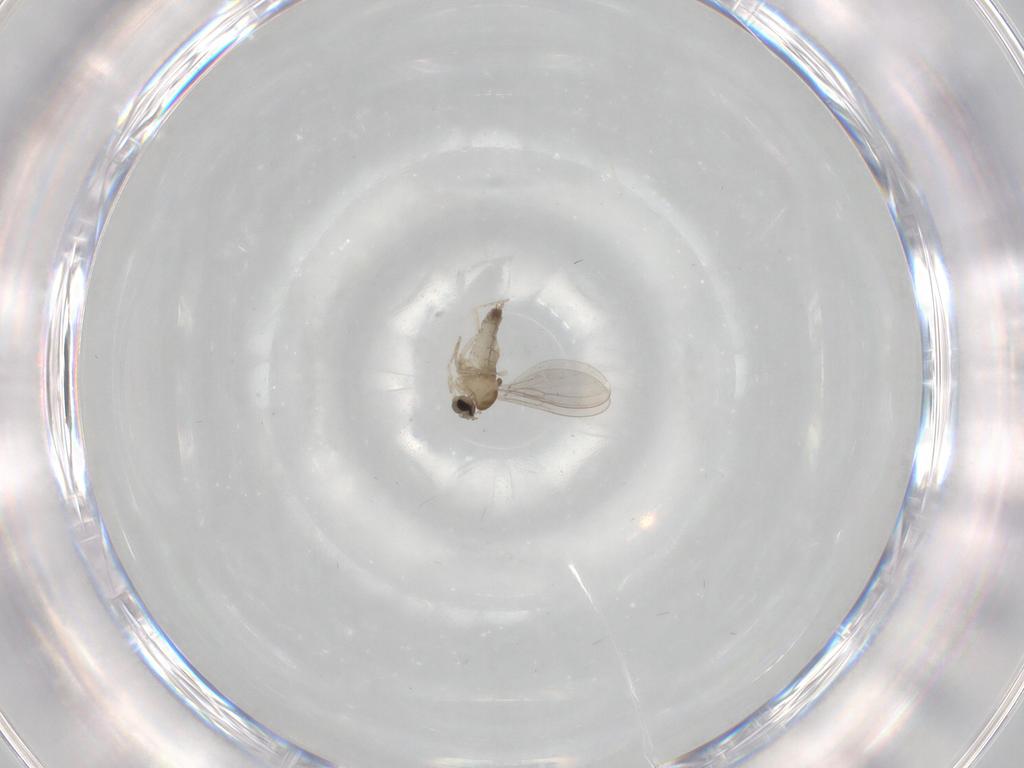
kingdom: Animalia
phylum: Arthropoda
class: Insecta
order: Diptera
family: Cecidomyiidae
